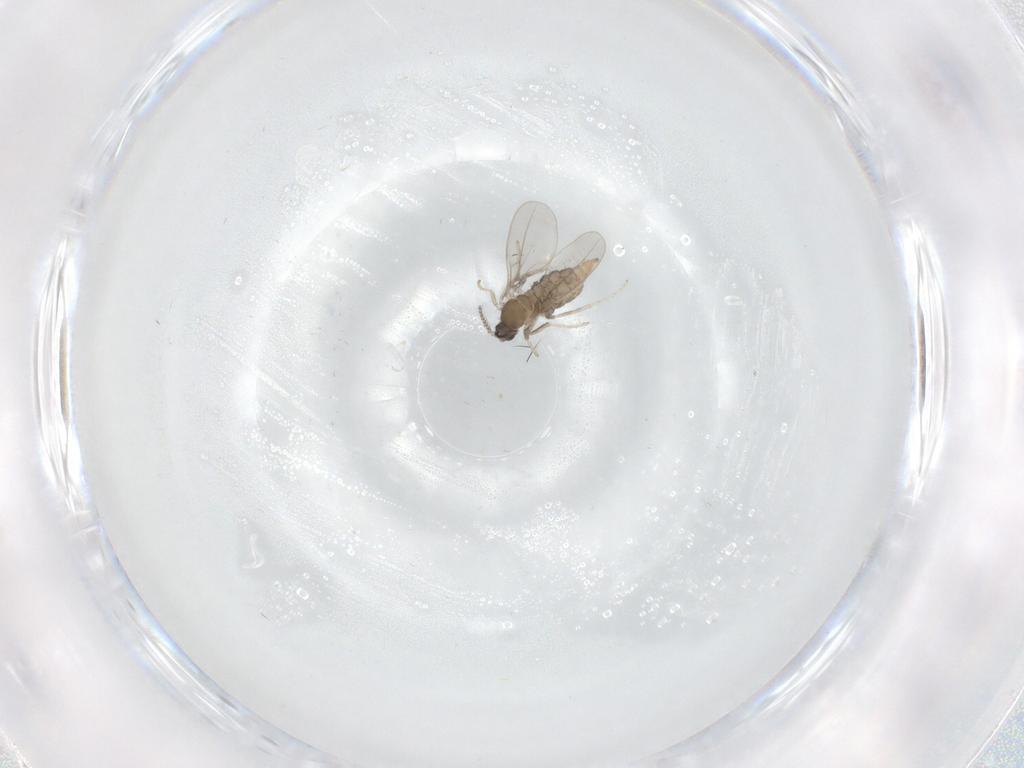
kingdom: Animalia
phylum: Arthropoda
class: Insecta
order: Diptera
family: Cecidomyiidae
